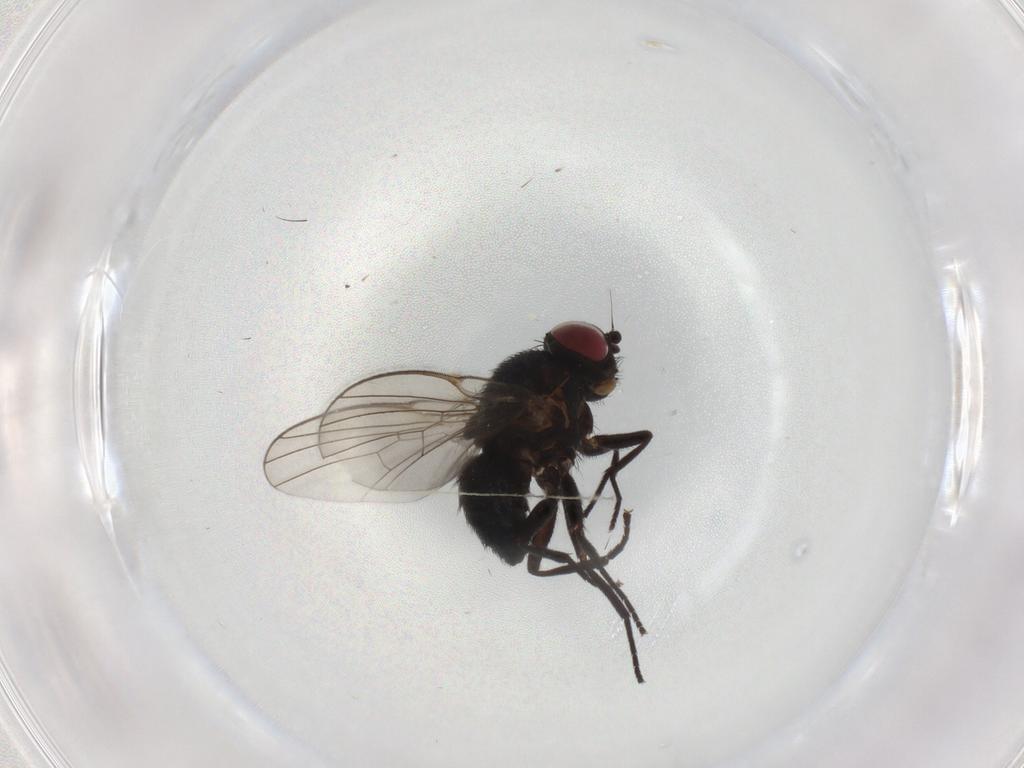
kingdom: Animalia
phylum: Arthropoda
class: Insecta
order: Diptera
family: Agromyzidae
